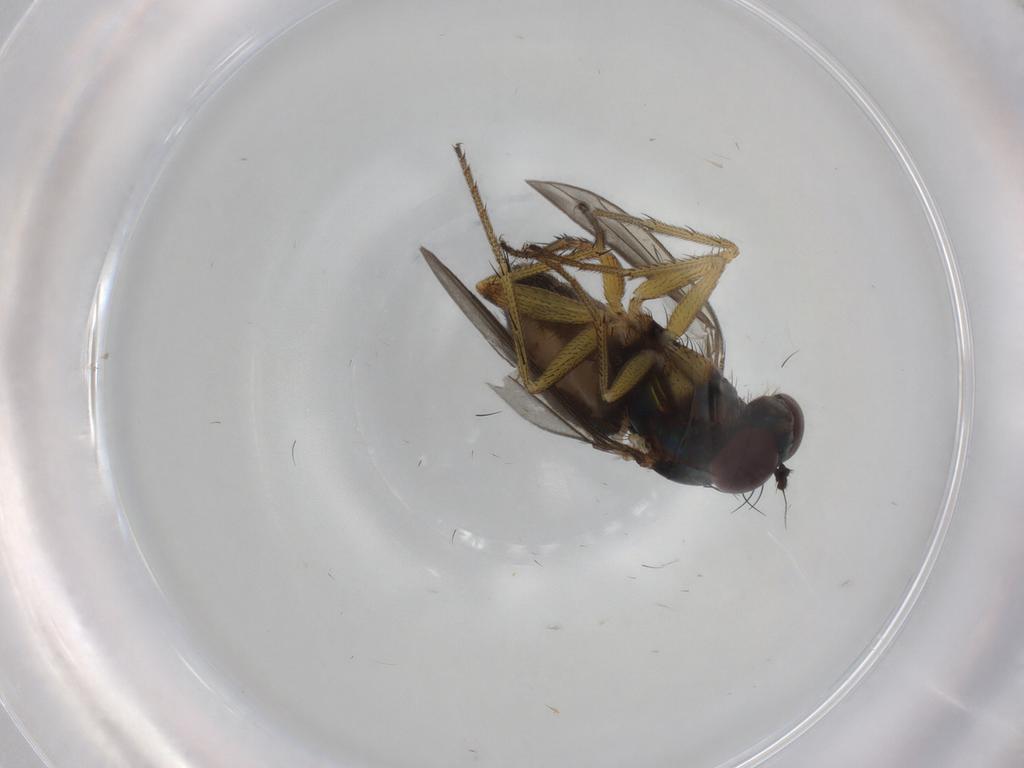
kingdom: Animalia
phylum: Arthropoda
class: Insecta
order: Diptera
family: Dolichopodidae
